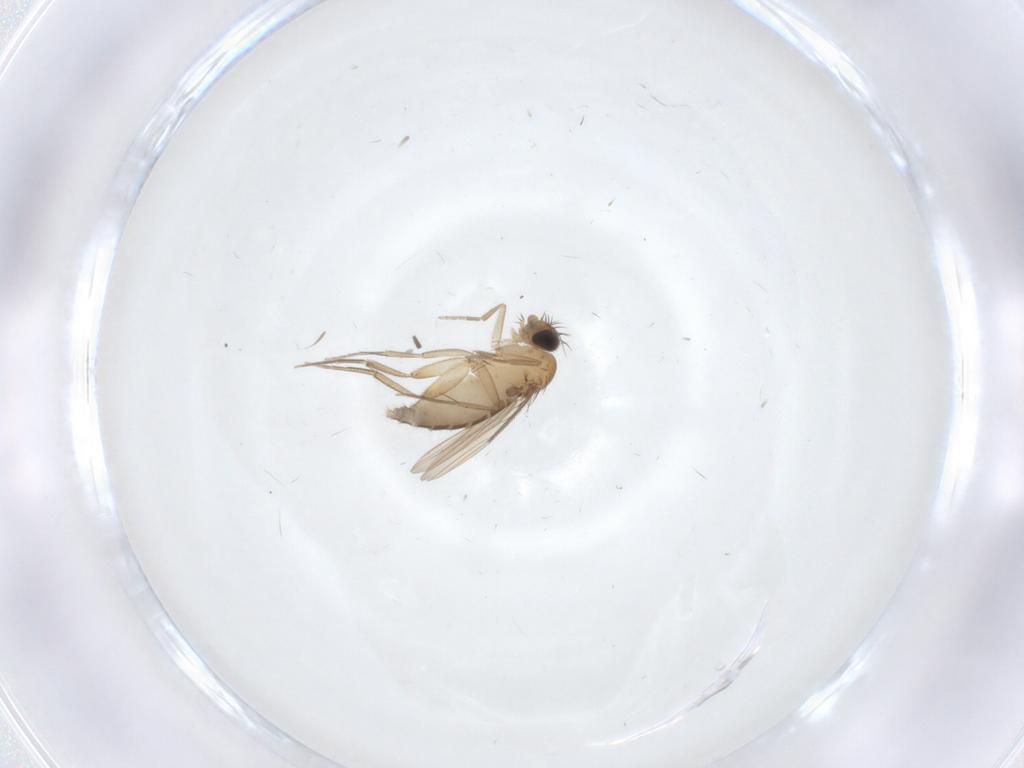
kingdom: Animalia
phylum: Arthropoda
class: Insecta
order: Diptera
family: Phoridae
